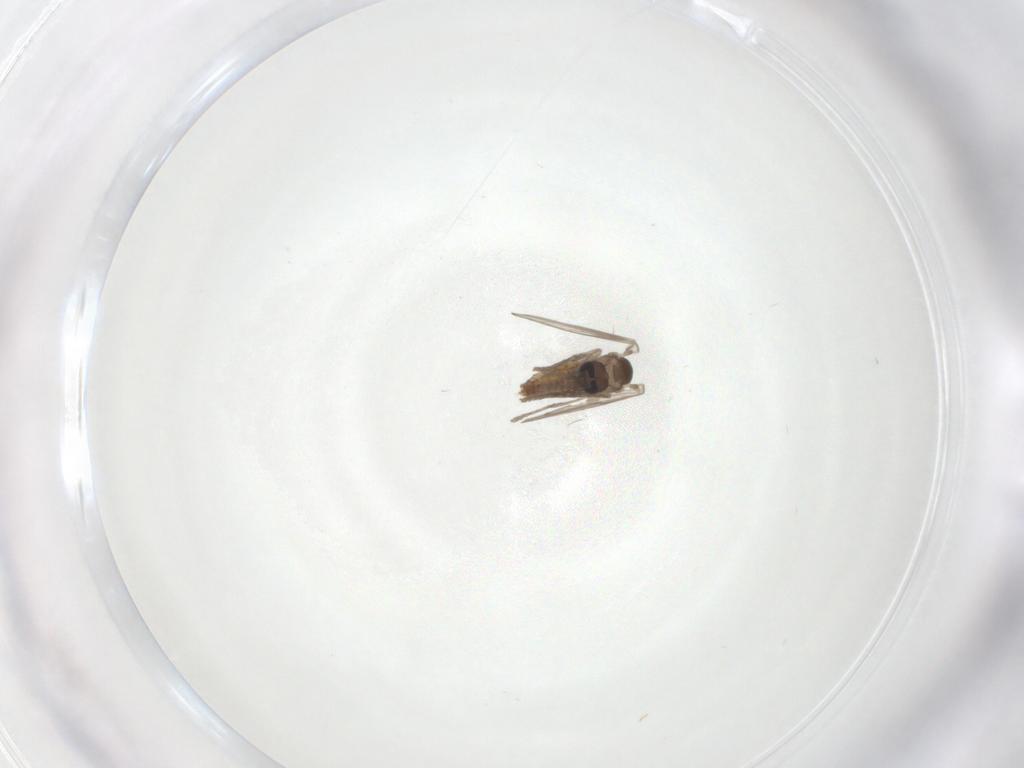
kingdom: Animalia
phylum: Arthropoda
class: Insecta
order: Diptera
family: Psychodidae
